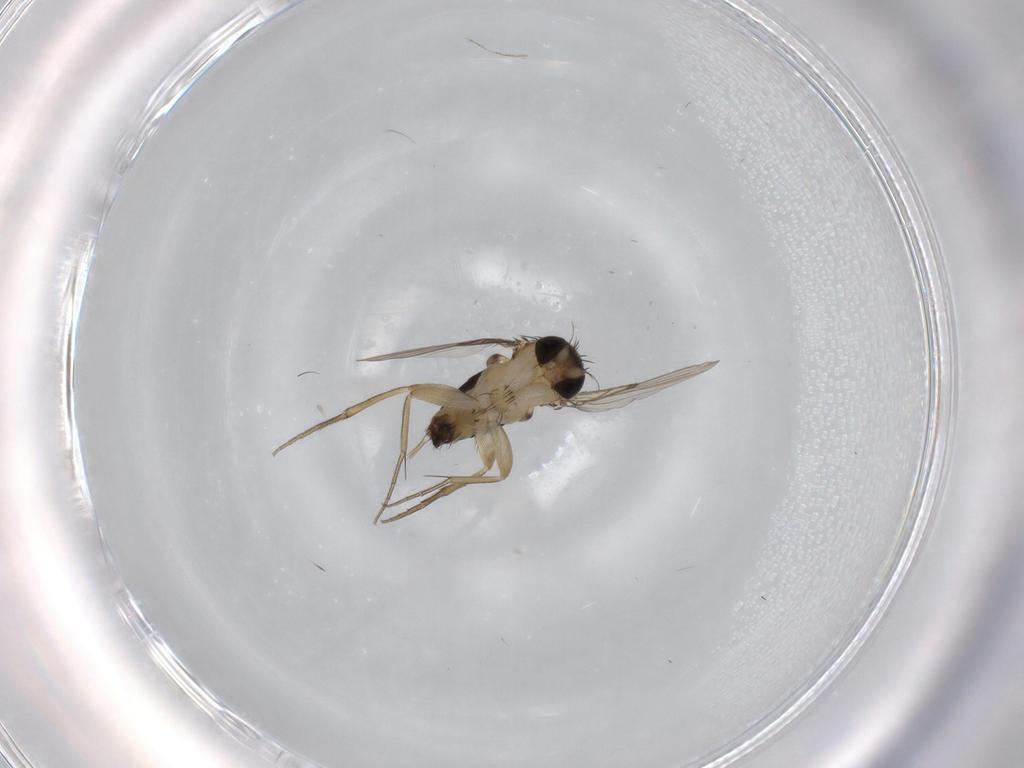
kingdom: Animalia
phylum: Arthropoda
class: Insecta
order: Diptera
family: Phoridae
